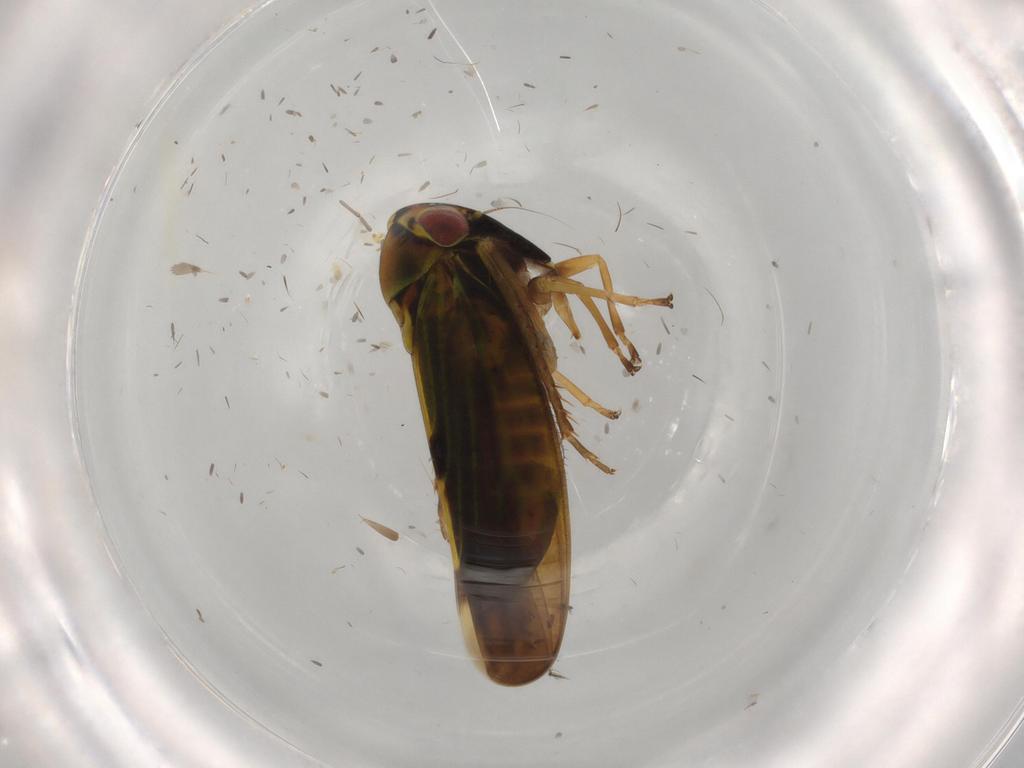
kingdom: Animalia
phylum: Arthropoda
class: Insecta
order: Hemiptera
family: Cicadellidae
